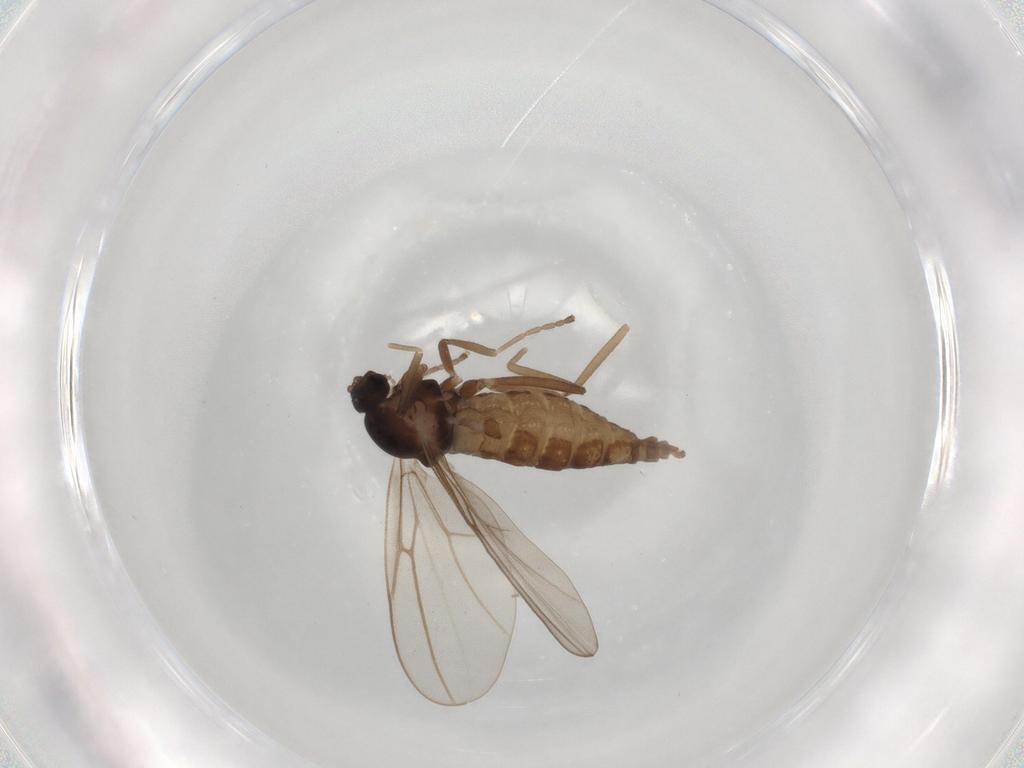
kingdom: Animalia
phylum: Arthropoda
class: Insecta
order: Diptera
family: Cecidomyiidae
